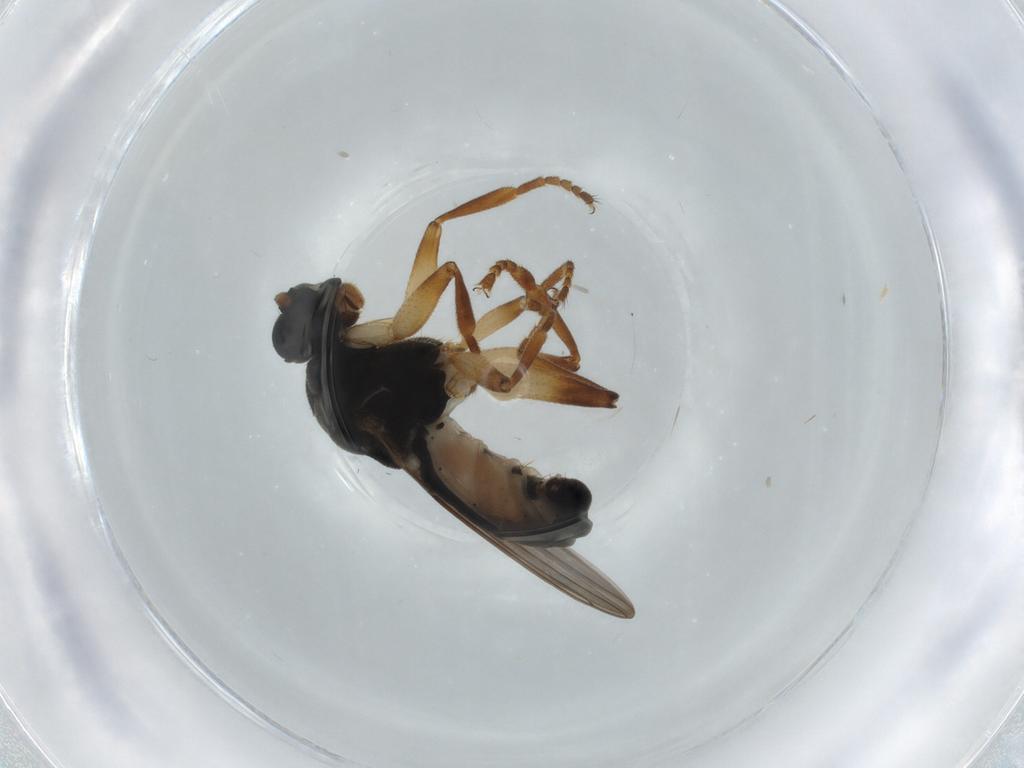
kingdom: Animalia
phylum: Arthropoda
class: Insecta
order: Diptera
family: Sphaeroceridae
